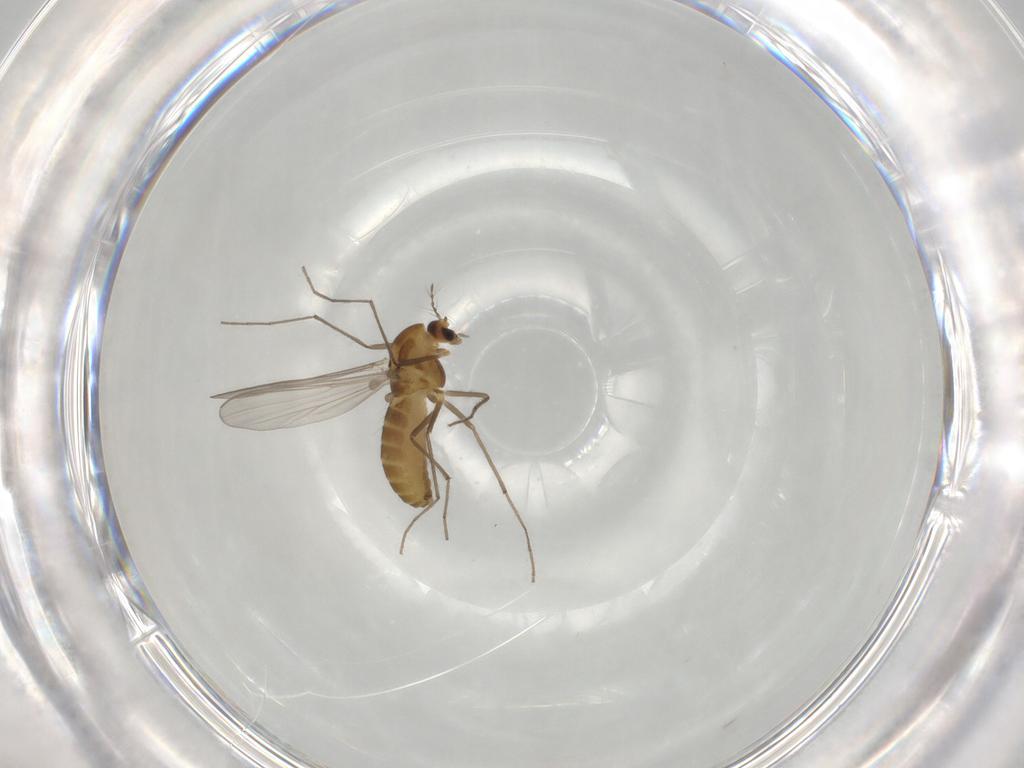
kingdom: Animalia
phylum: Arthropoda
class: Insecta
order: Diptera
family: Chironomidae
